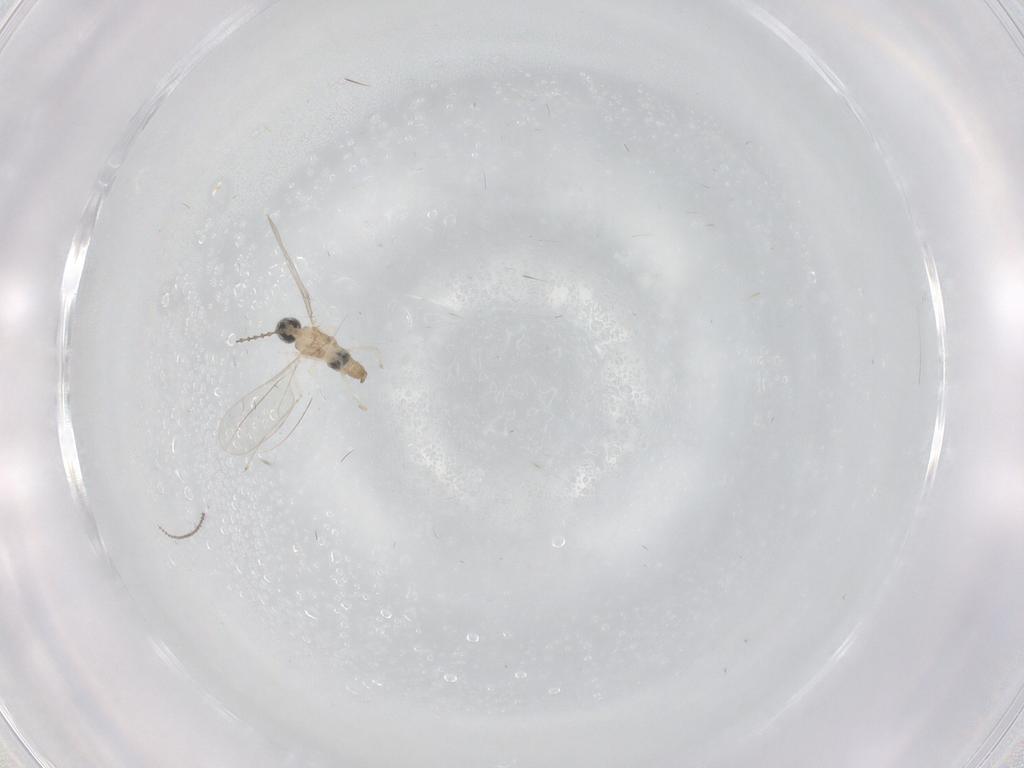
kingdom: Animalia
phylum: Arthropoda
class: Insecta
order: Diptera
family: Cecidomyiidae
